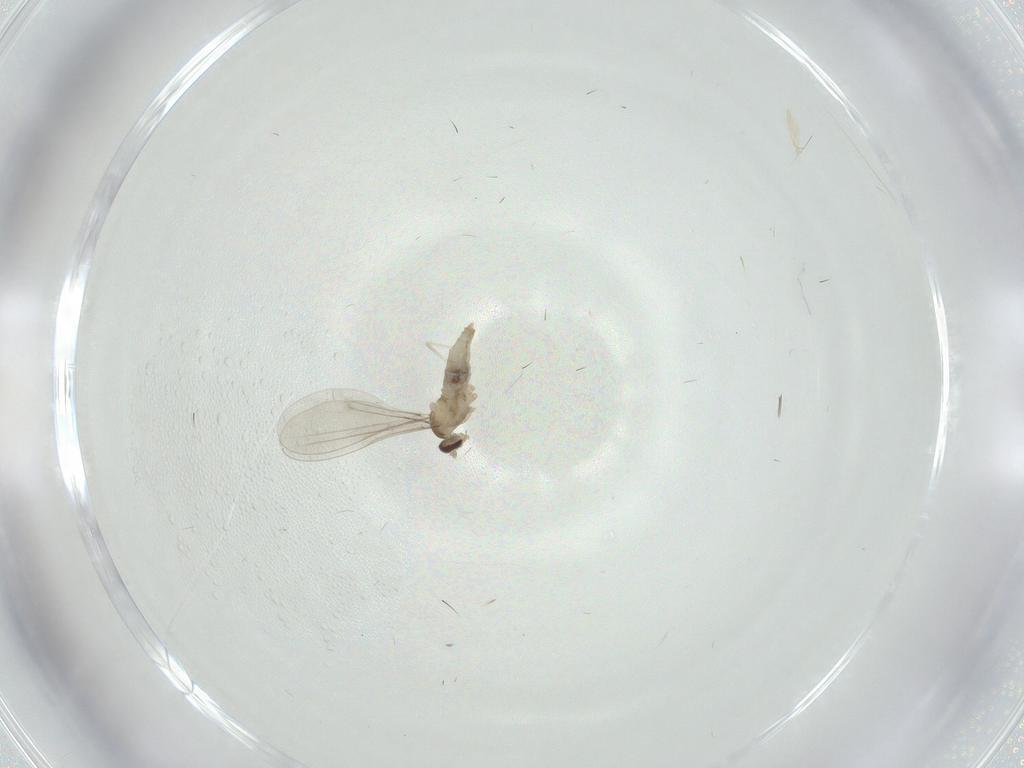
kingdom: Animalia
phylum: Arthropoda
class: Insecta
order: Diptera
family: Cecidomyiidae
